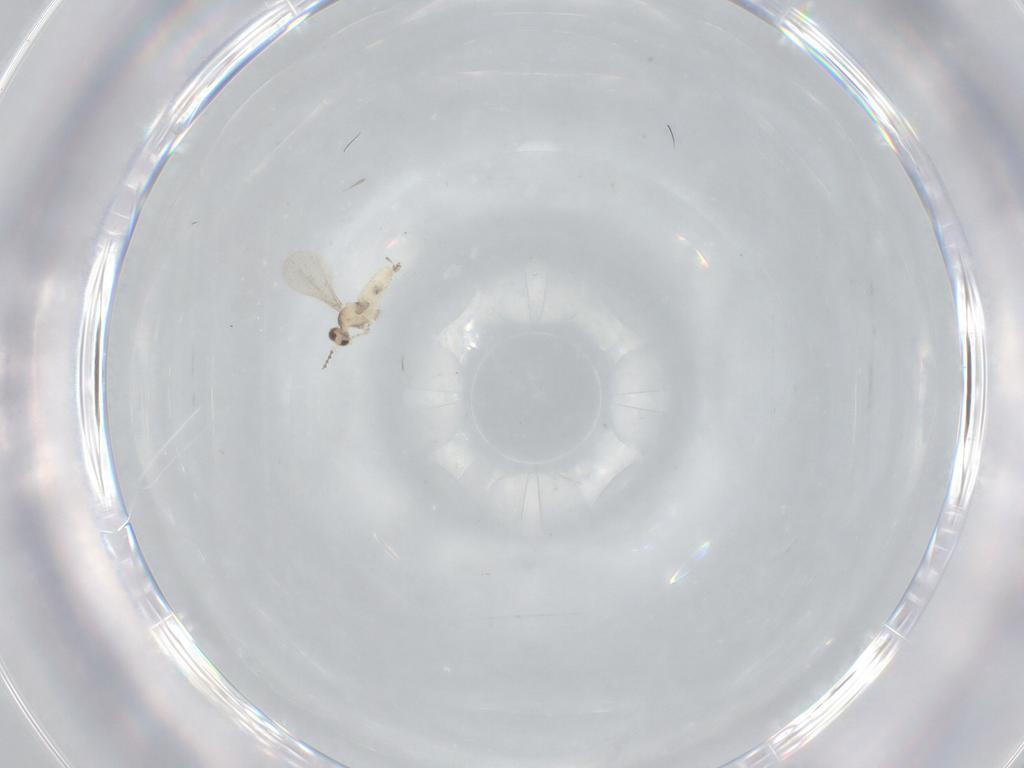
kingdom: Animalia
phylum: Arthropoda
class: Insecta
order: Diptera
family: Cecidomyiidae
